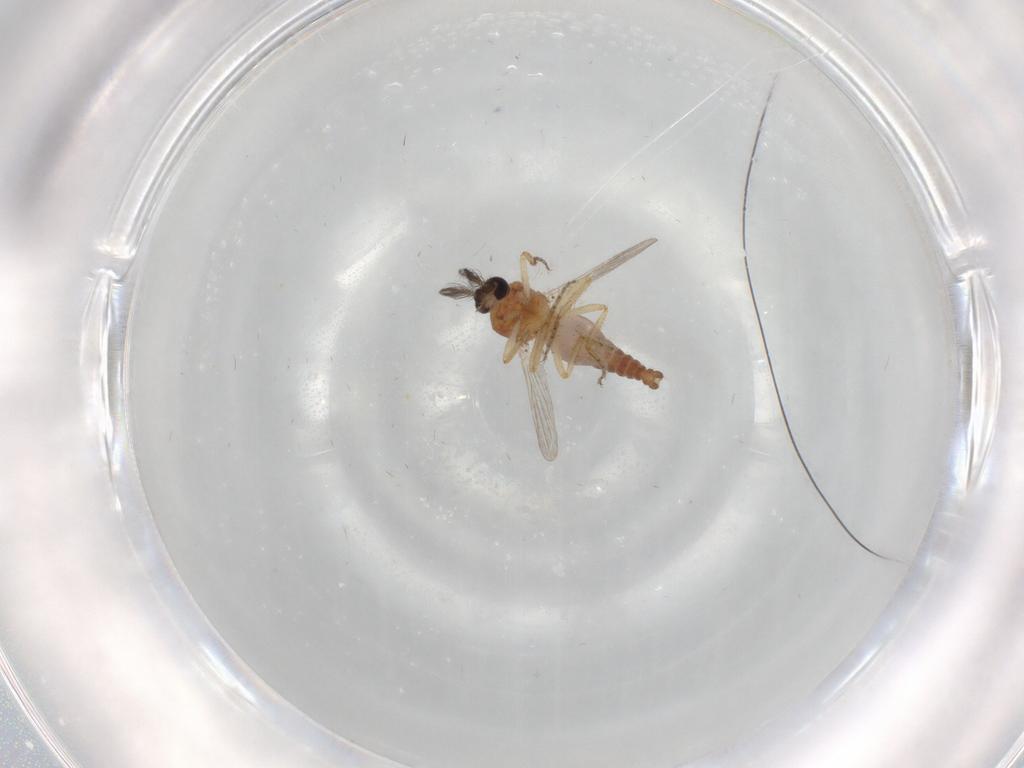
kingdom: Animalia
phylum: Arthropoda
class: Insecta
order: Diptera
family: Ceratopogonidae
